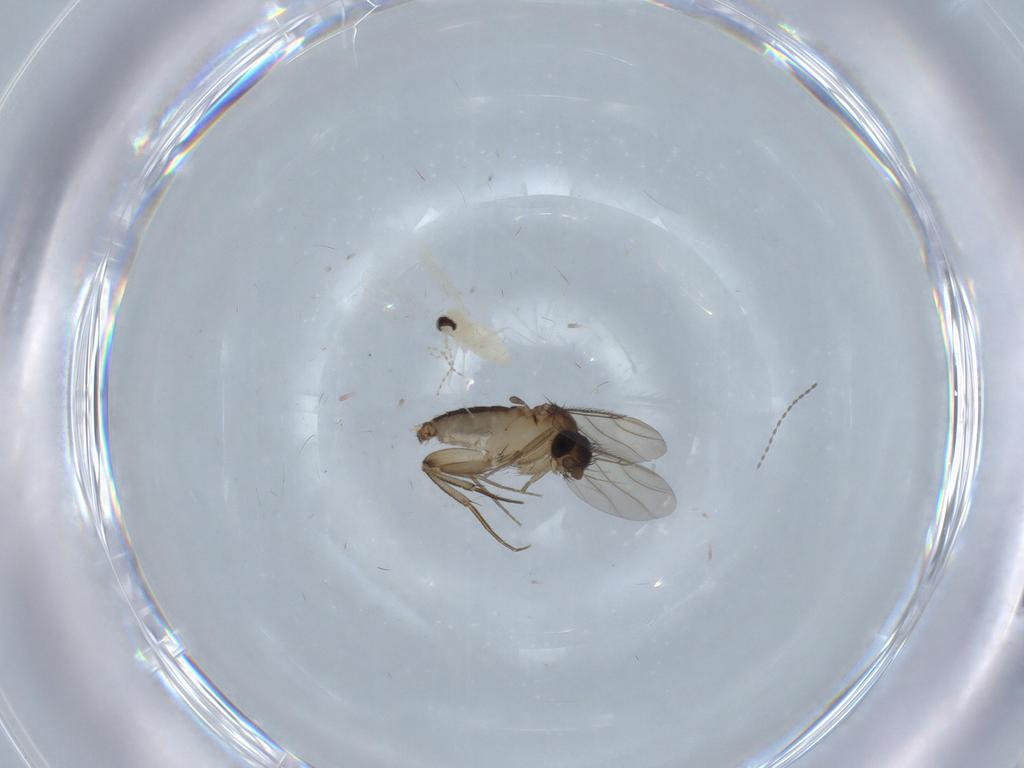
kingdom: Animalia
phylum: Arthropoda
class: Insecta
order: Diptera
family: Phoridae
